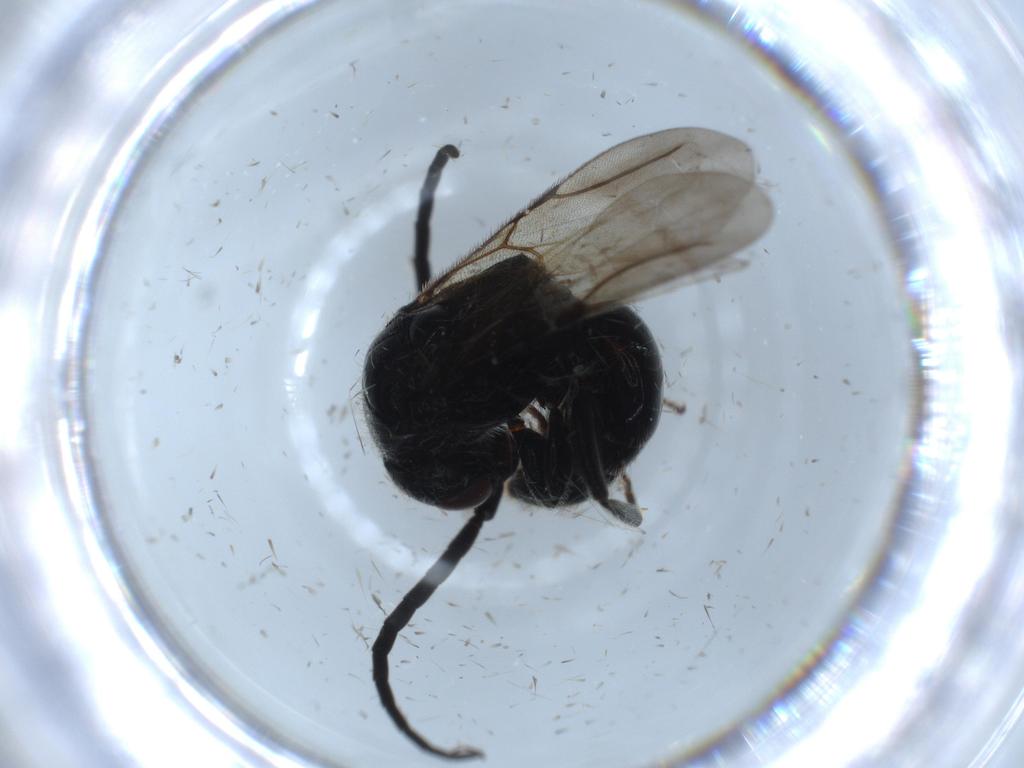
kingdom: Animalia
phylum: Arthropoda
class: Insecta
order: Hymenoptera
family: Bethylidae
